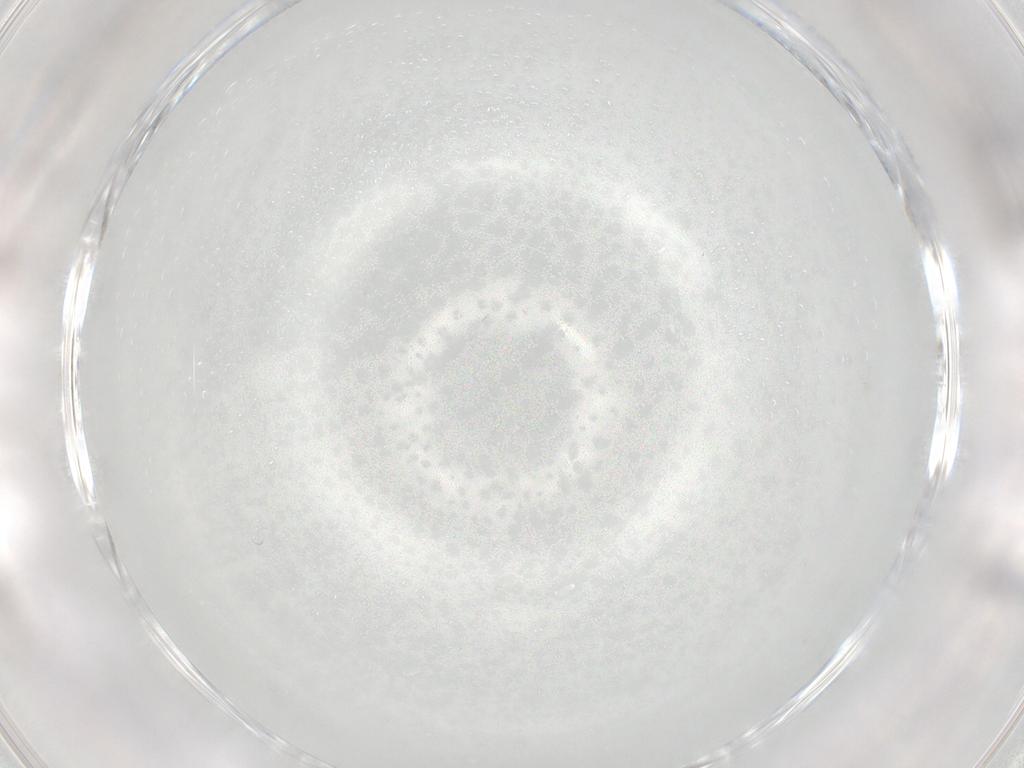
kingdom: Animalia
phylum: Arthropoda
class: Insecta
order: Diptera
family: Cecidomyiidae
